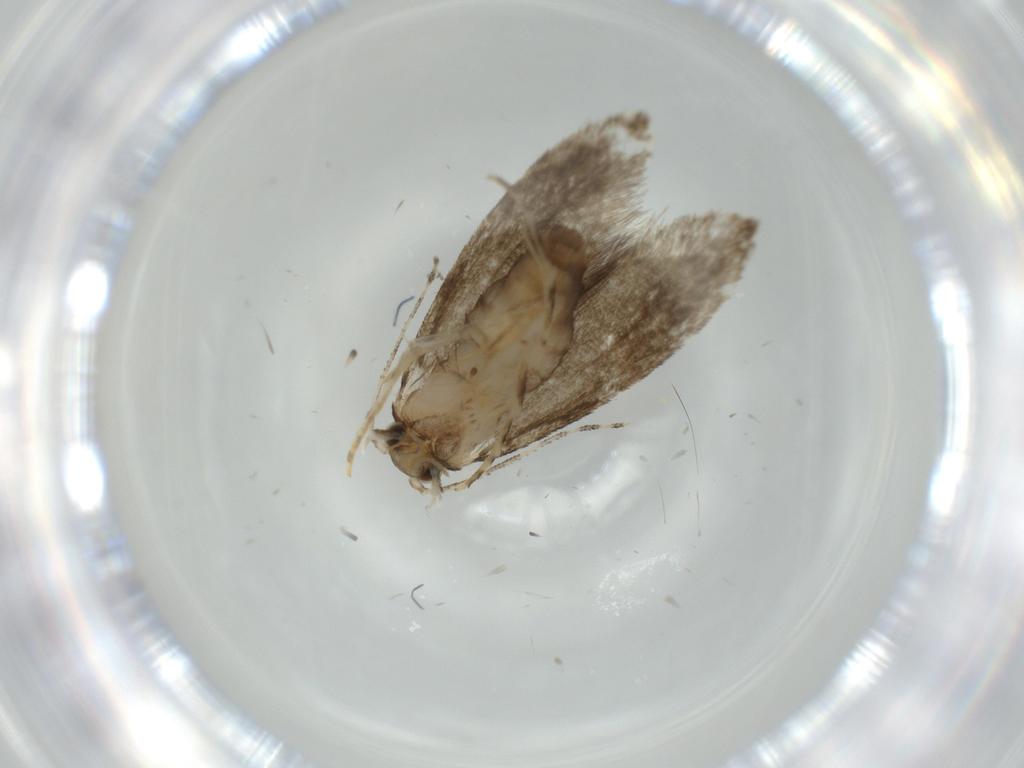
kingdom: Animalia
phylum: Arthropoda
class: Insecta
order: Lepidoptera
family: Tineidae
